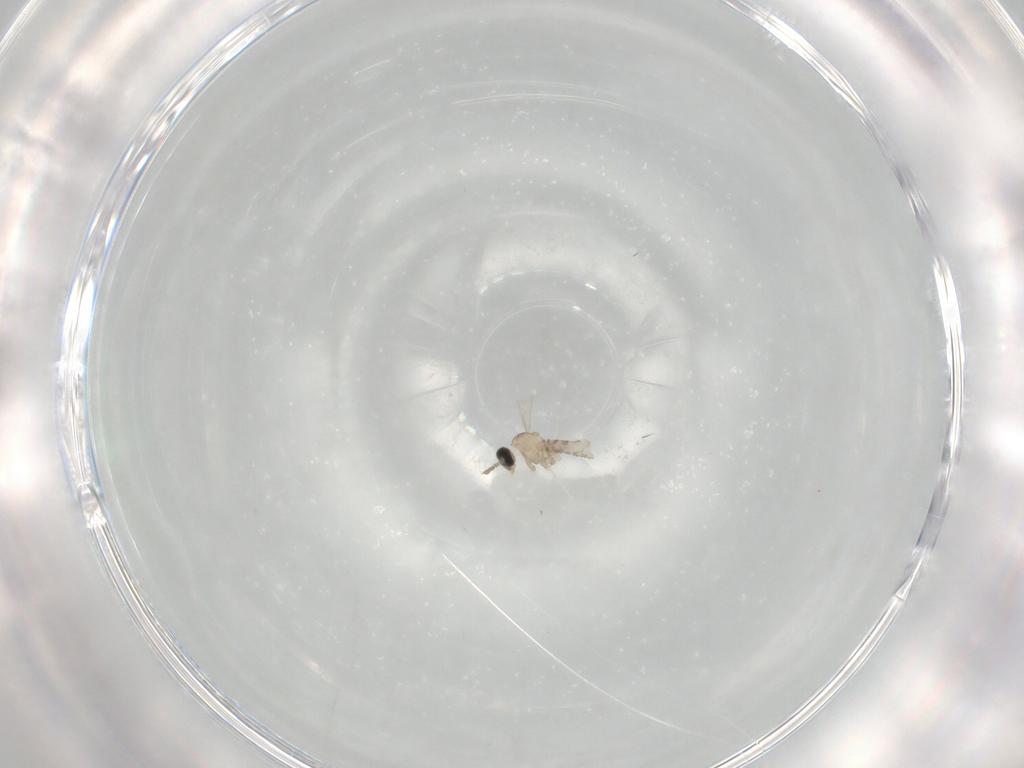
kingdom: Animalia
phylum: Arthropoda
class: Insecta
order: Diptera
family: Cecidomyiidae
